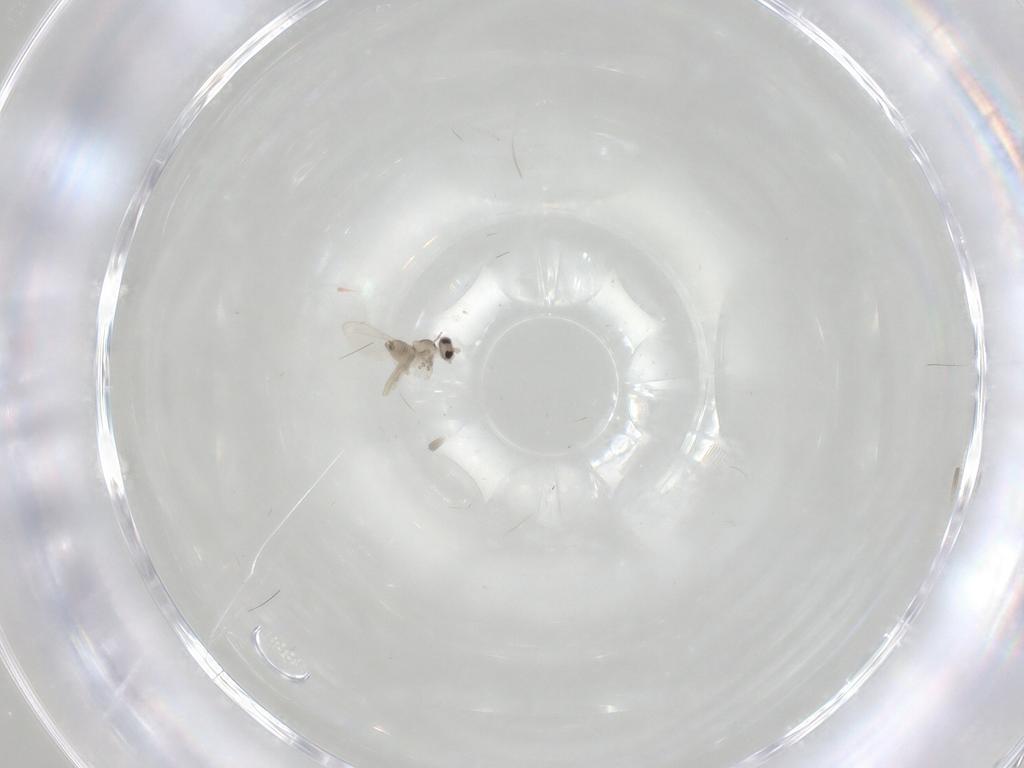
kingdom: Animalia
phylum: Arthropoda
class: Insecta
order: Diptera
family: Cecidomyiidae
